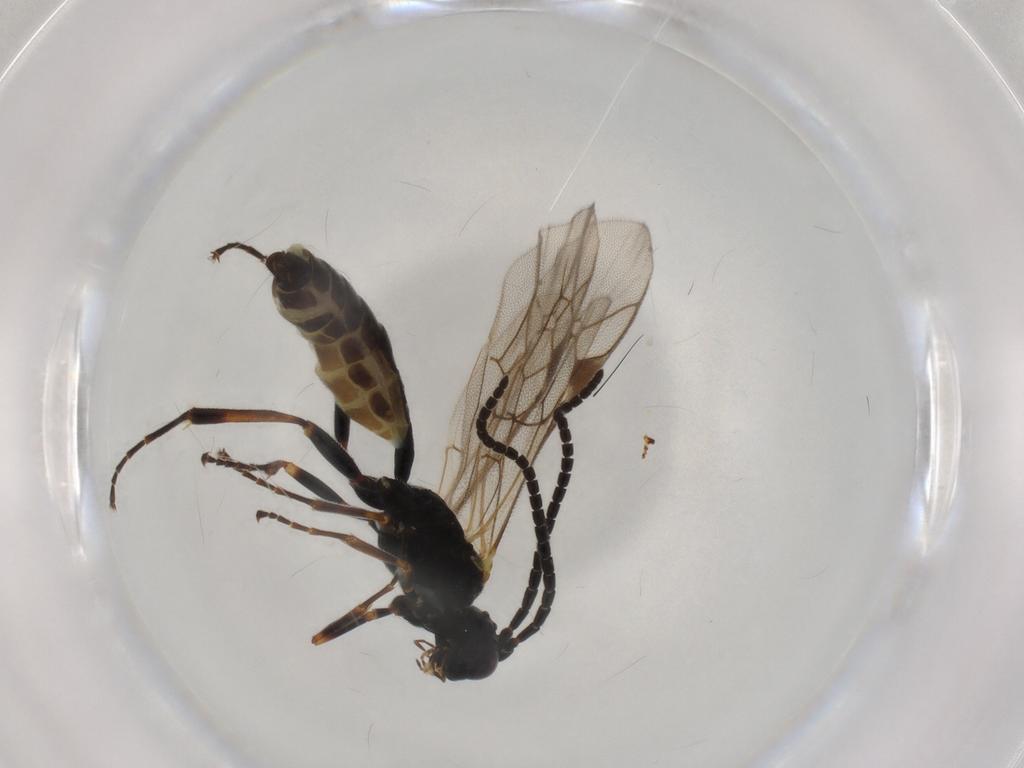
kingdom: Animalia
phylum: Arthropoda
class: Insecta
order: Hymenoptera
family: Ichneumonidae
